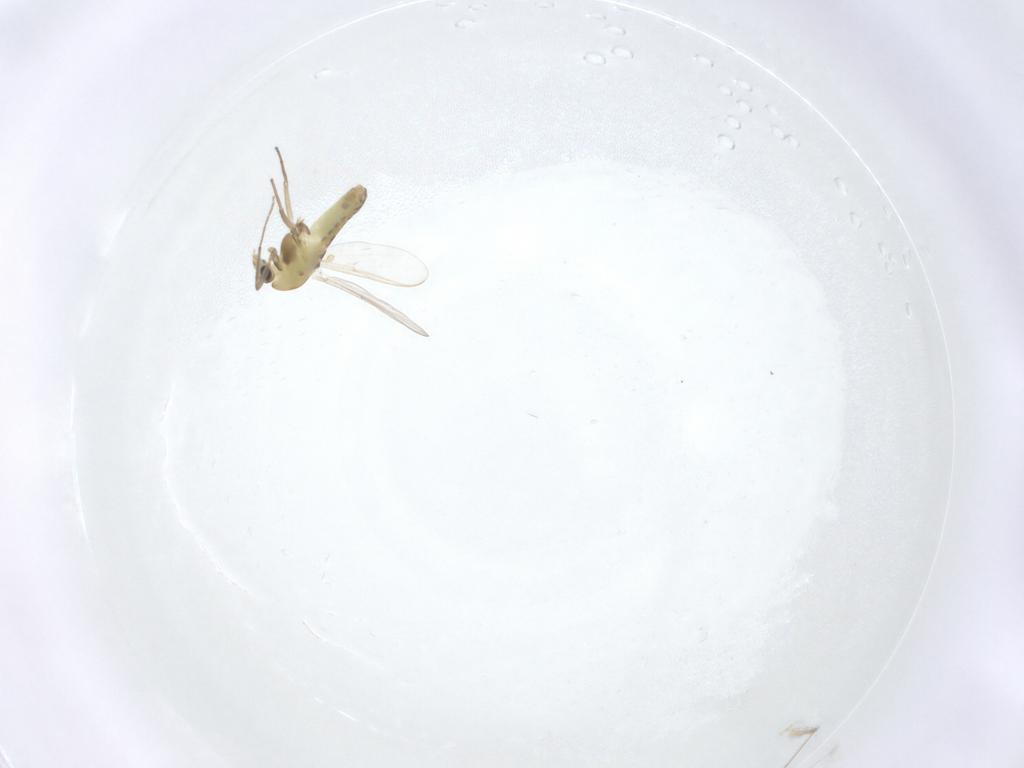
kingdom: Animalia
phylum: Arthropoda
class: Insecta
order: Diptera
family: Chironomidae
